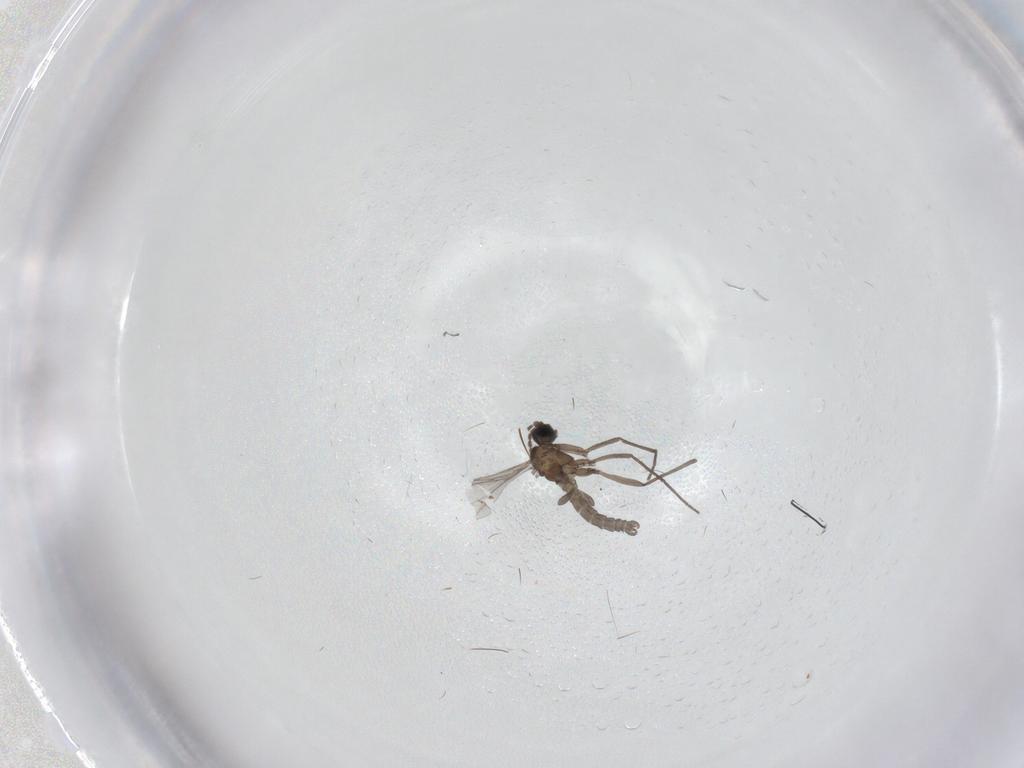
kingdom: Animalia
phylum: Arthropoda
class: Insecta
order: Diptera
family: Sciaridae
